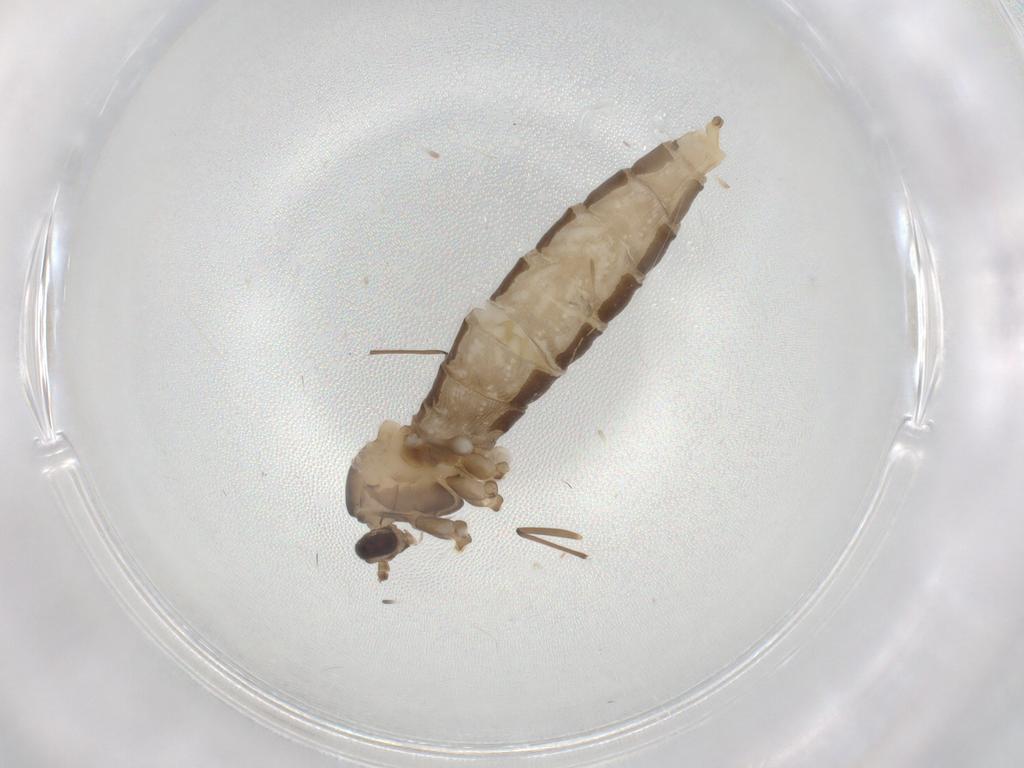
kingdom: Animalia
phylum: Arthropoda
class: Insecta
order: Diptera
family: Cecidomyiidae
